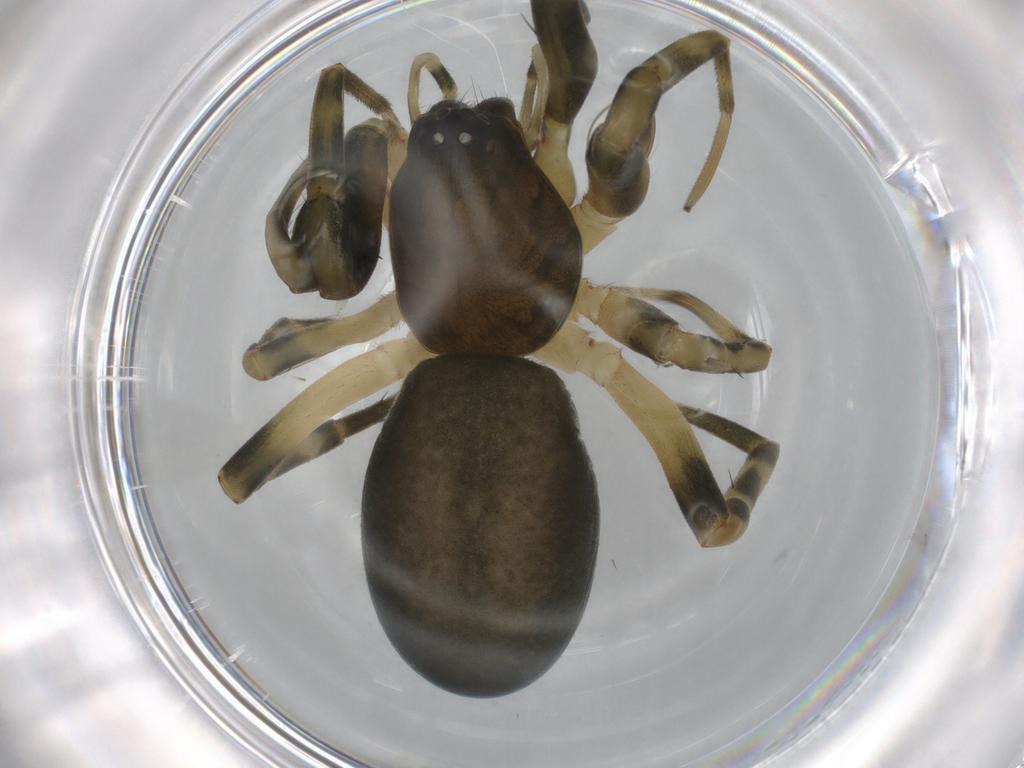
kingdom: Animalia
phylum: Arthropoda
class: Arachnida
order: Araneae
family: Trachelidae
